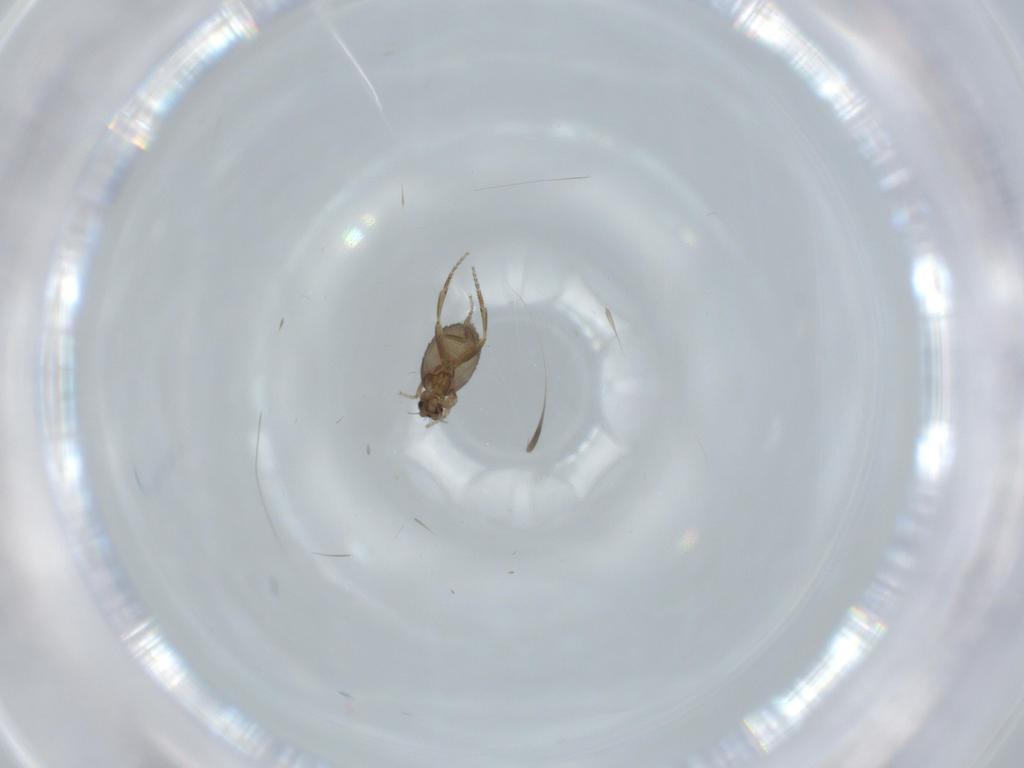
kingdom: Animalia
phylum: Arthropoda
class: Insecta
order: Diptera
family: Phoridae
